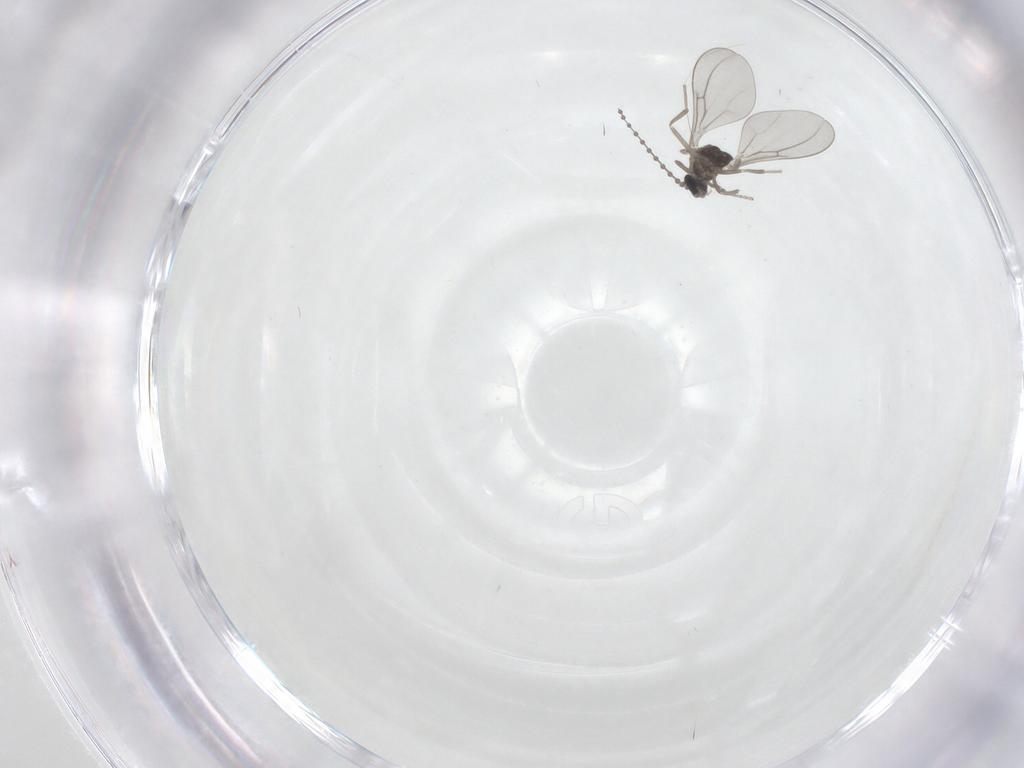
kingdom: Animalia
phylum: Arthropoda
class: Insecta
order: Diptera
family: Cecidomyiidae
